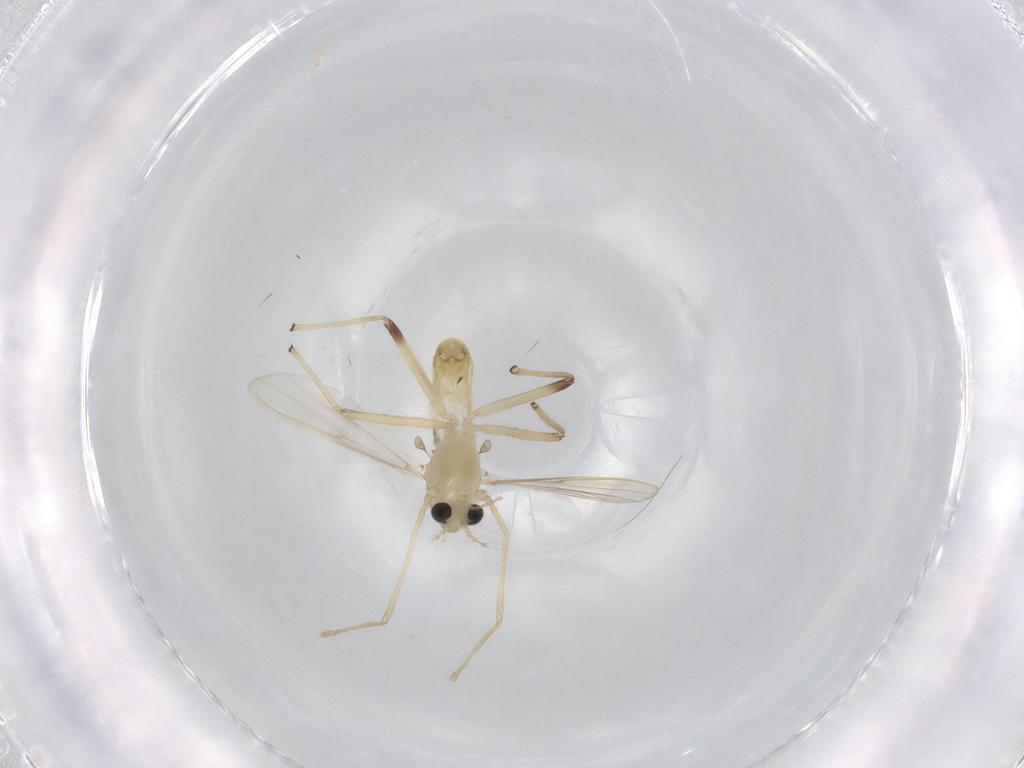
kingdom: Animalia
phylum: Arthropoda
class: Insecta
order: Diptera
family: Chironomidae
